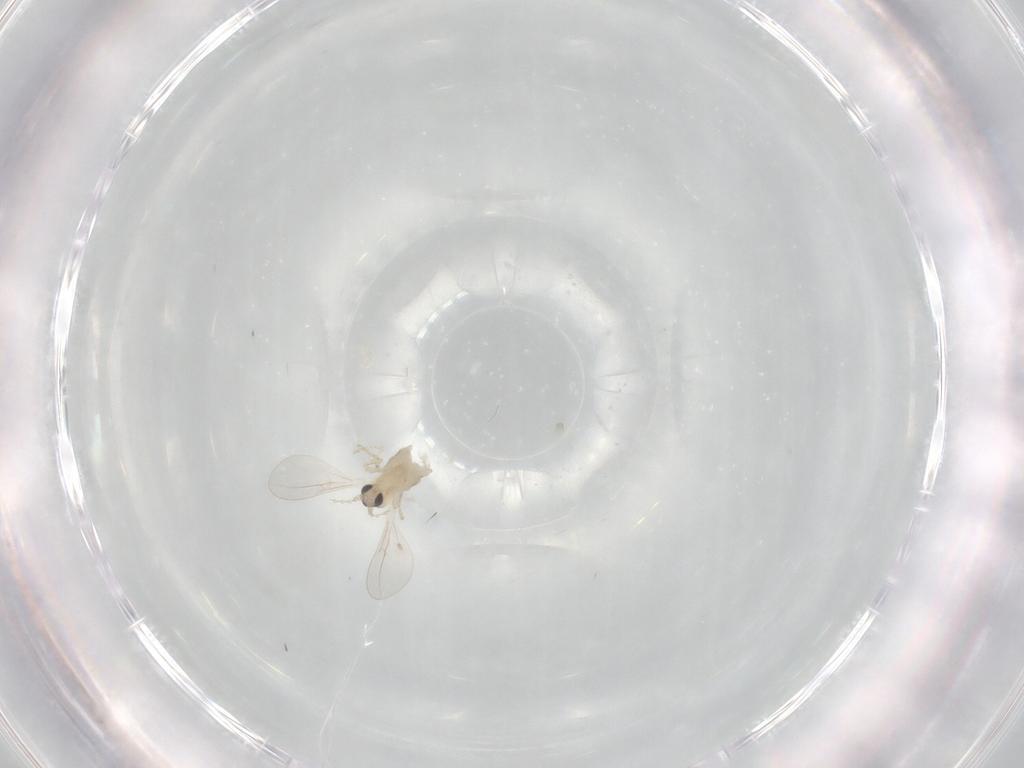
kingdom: Animalia
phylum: Arthropoda
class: Insecta
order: Diptera
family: Cecidomyiidae
